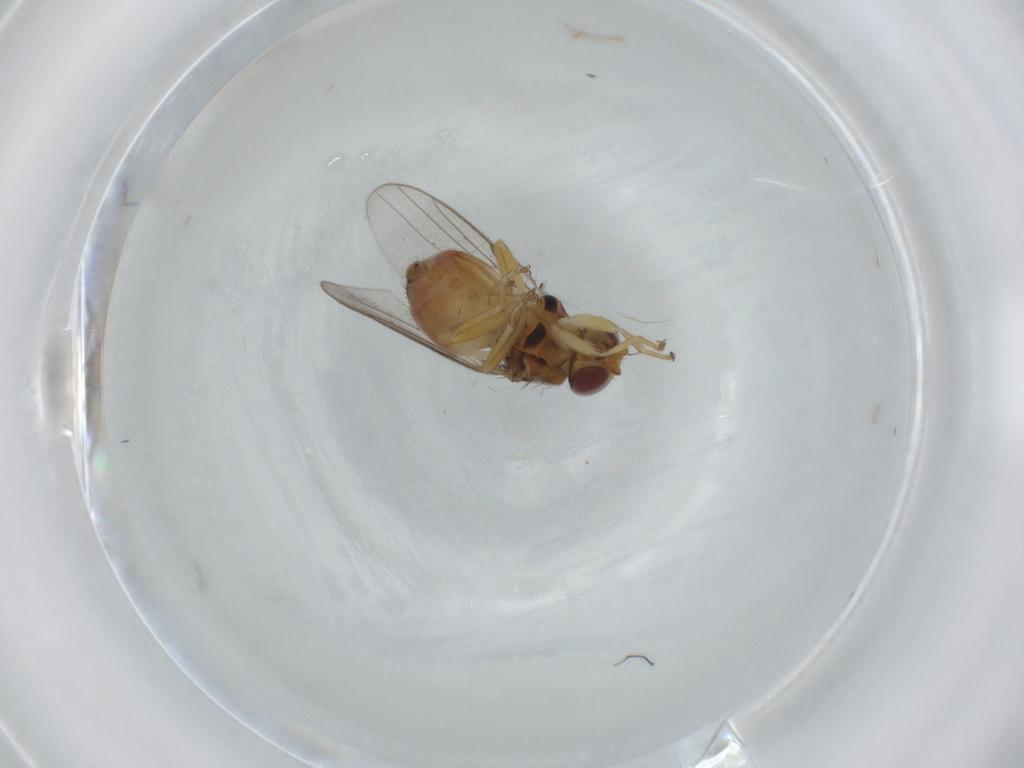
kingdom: Animalia
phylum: Arthropoda
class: Insecta
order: Diptera
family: Chloropidae
